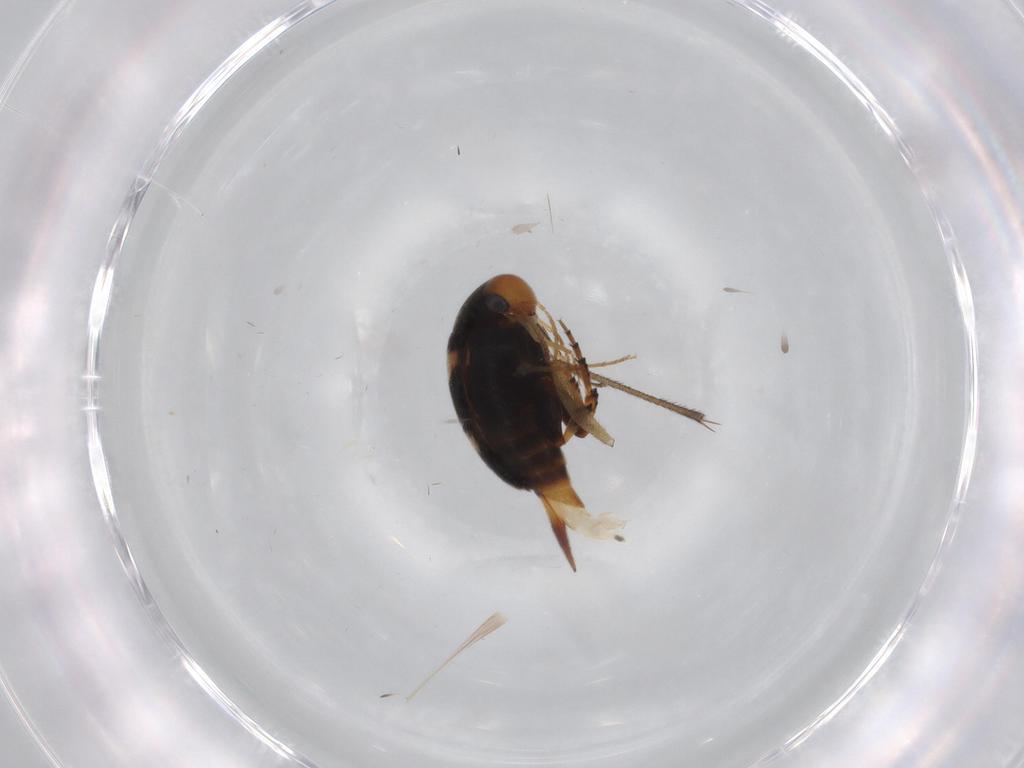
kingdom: Animalia
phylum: Arthropoda
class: Insecta
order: Coleoptera
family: Mordellidae
